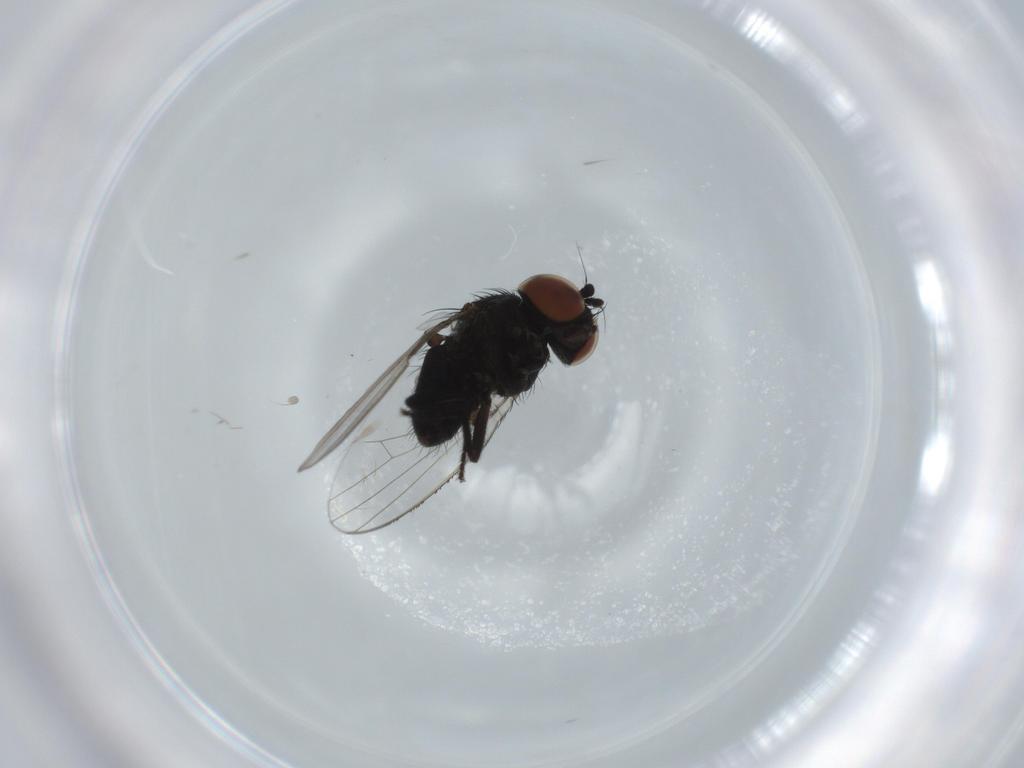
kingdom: Animalia
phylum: Arthropoda
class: Insecta
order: Diptera
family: Milichiidae
